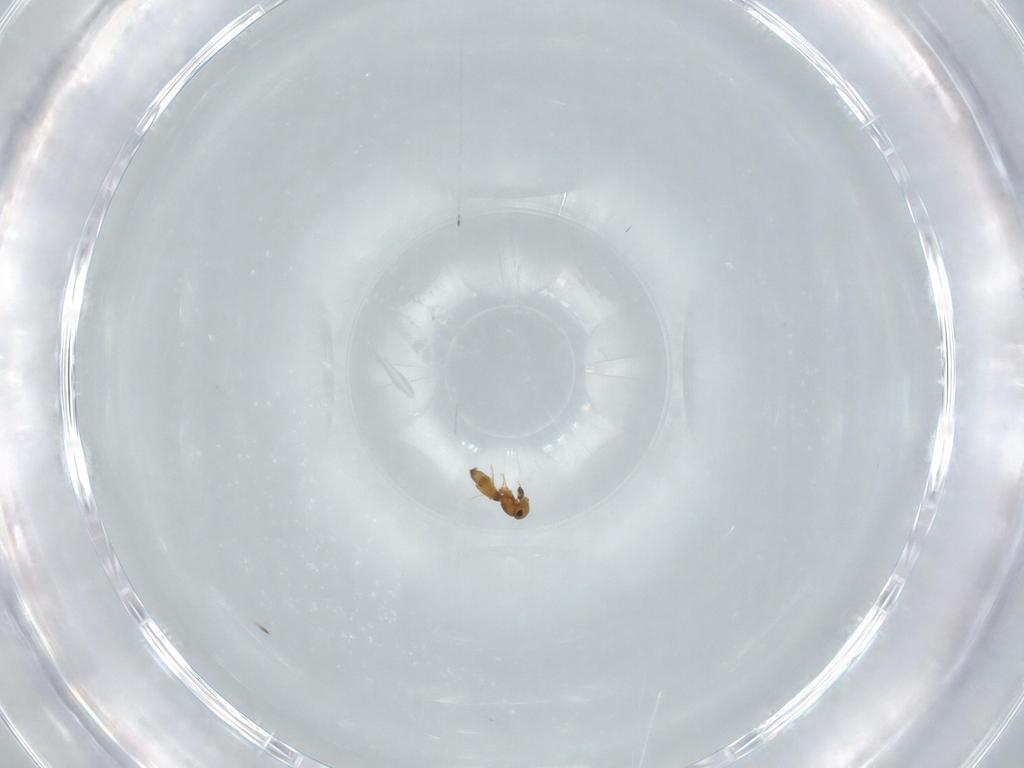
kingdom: Animalia
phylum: Arthropoda
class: Insecta
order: Hymenoptera
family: Platygastridae
